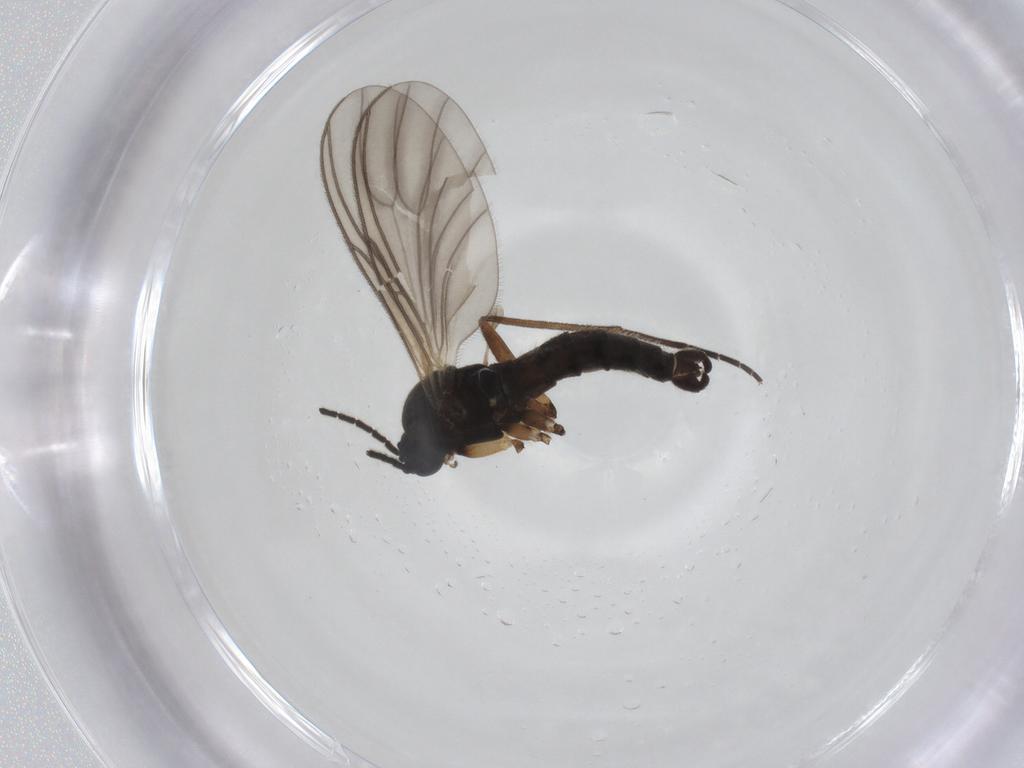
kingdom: Animalia
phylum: Arthropoda
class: Insecta
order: Diptera
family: Sciaridae
